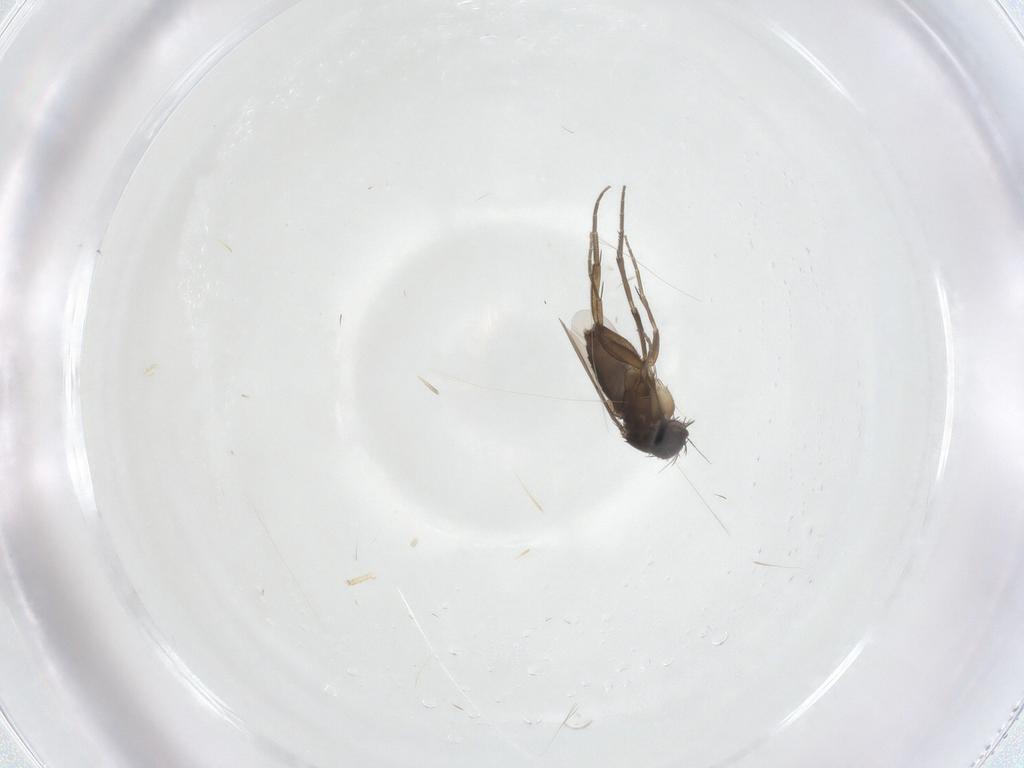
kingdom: Animalia
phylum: Arthropoda
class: Insecta
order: Diptera
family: Phoridae
